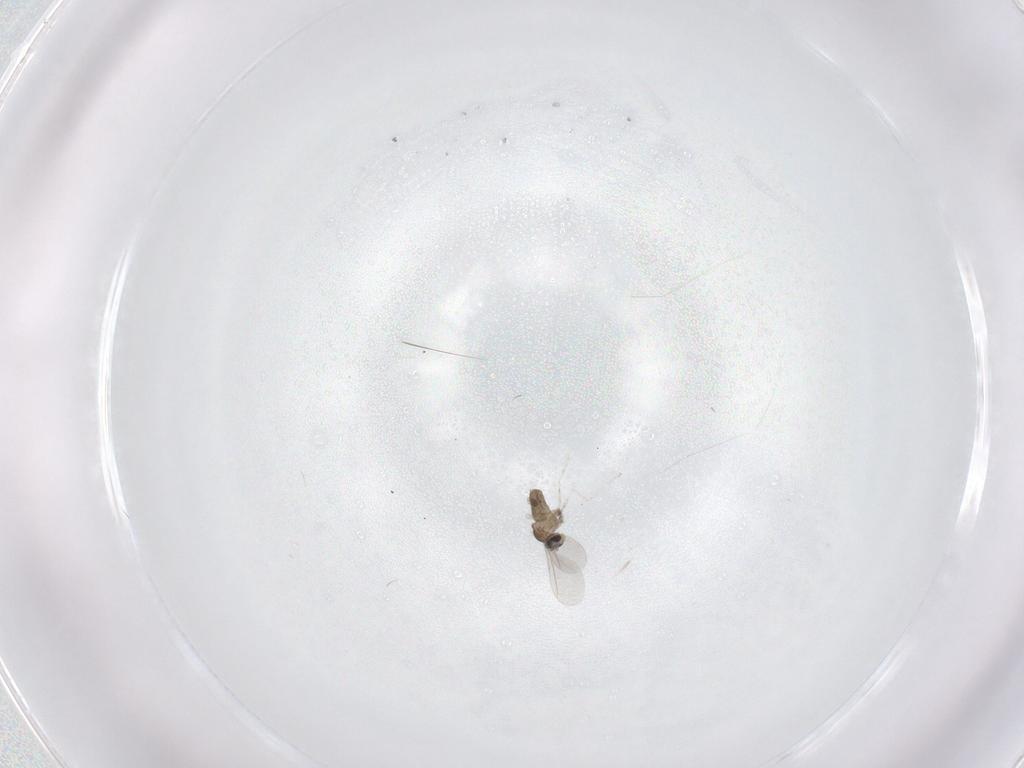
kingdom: Animalia
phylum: Arthropoda
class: Insecta
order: Diptera
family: Cecidomyiidae
